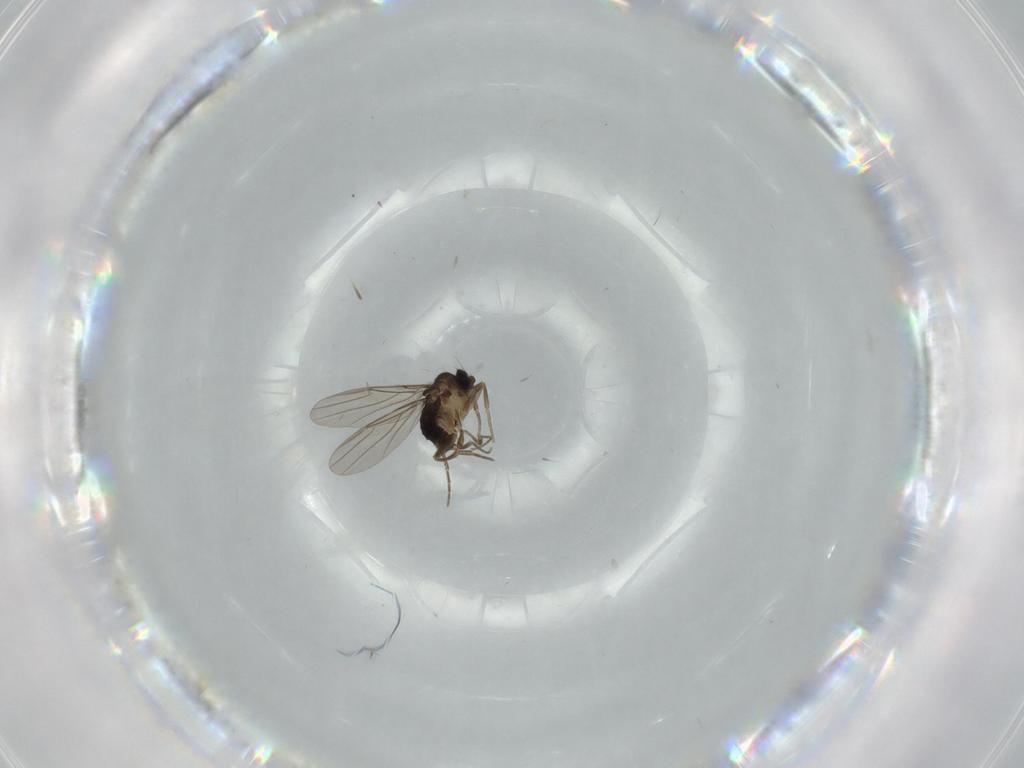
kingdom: Animalia
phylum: Arthropoda
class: Insecta
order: Diptera
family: Phoridae
